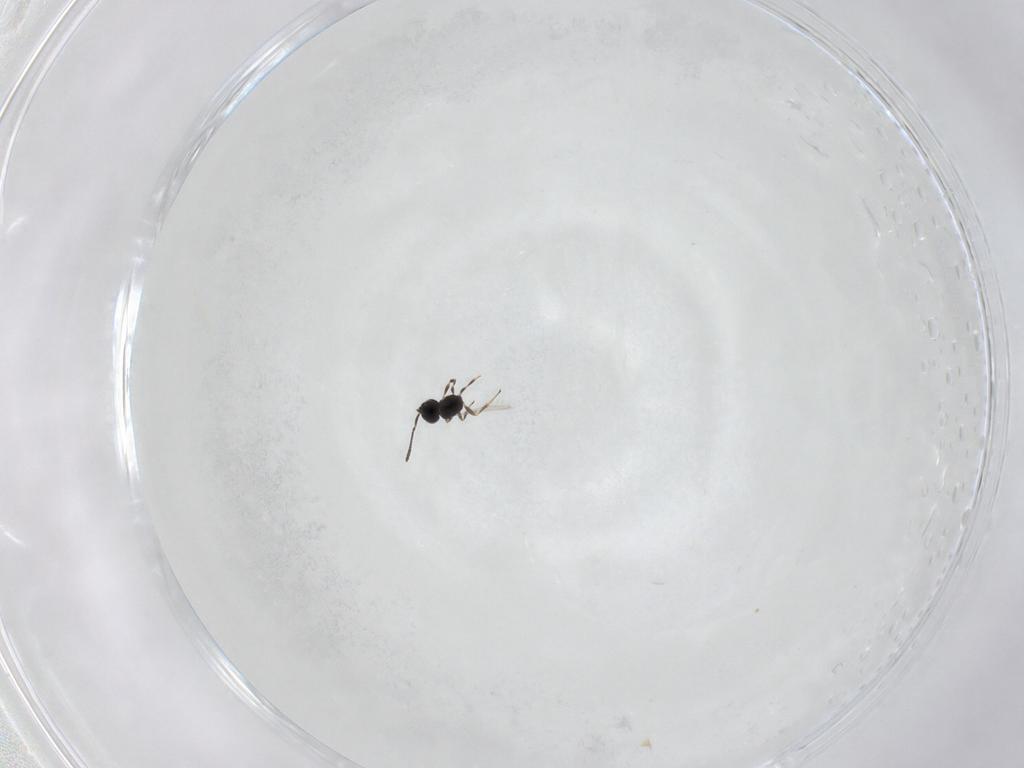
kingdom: Animalia
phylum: Arthropoda
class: Insecta
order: Hymenoptera
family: Scelionidae
